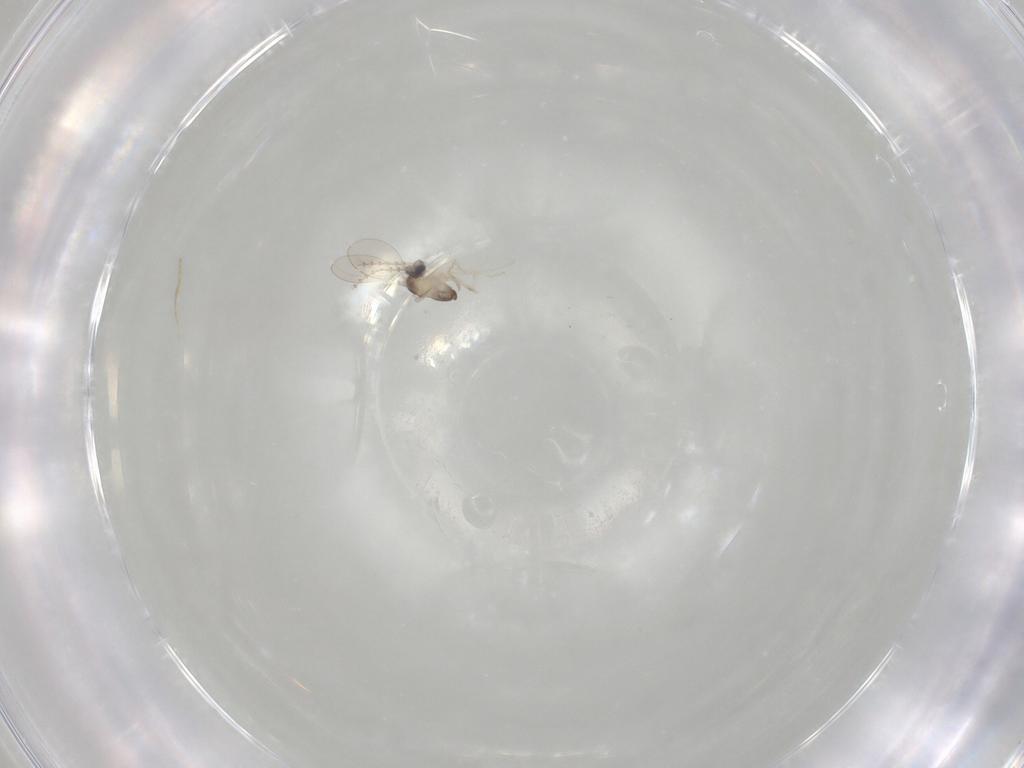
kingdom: Animalia
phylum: Arthropoda
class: Insecta
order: Diptera
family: Cecidomyiidae
